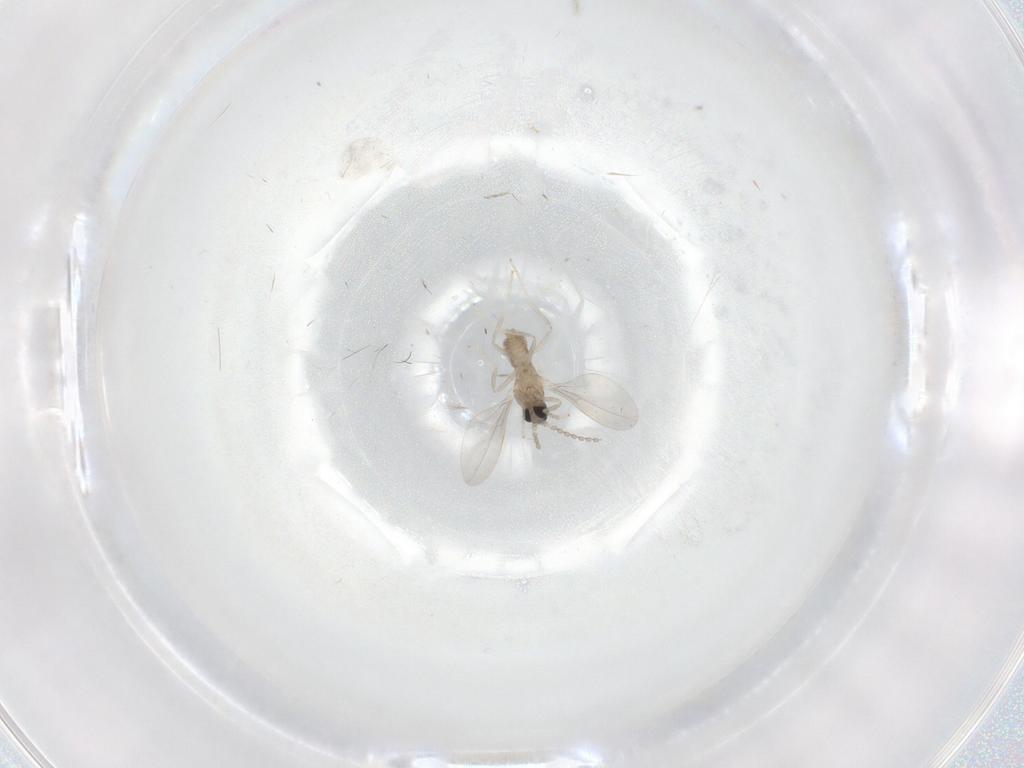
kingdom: Animalia
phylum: Arthropoda
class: Insecta
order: Diptera
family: Cecidomyiidae
